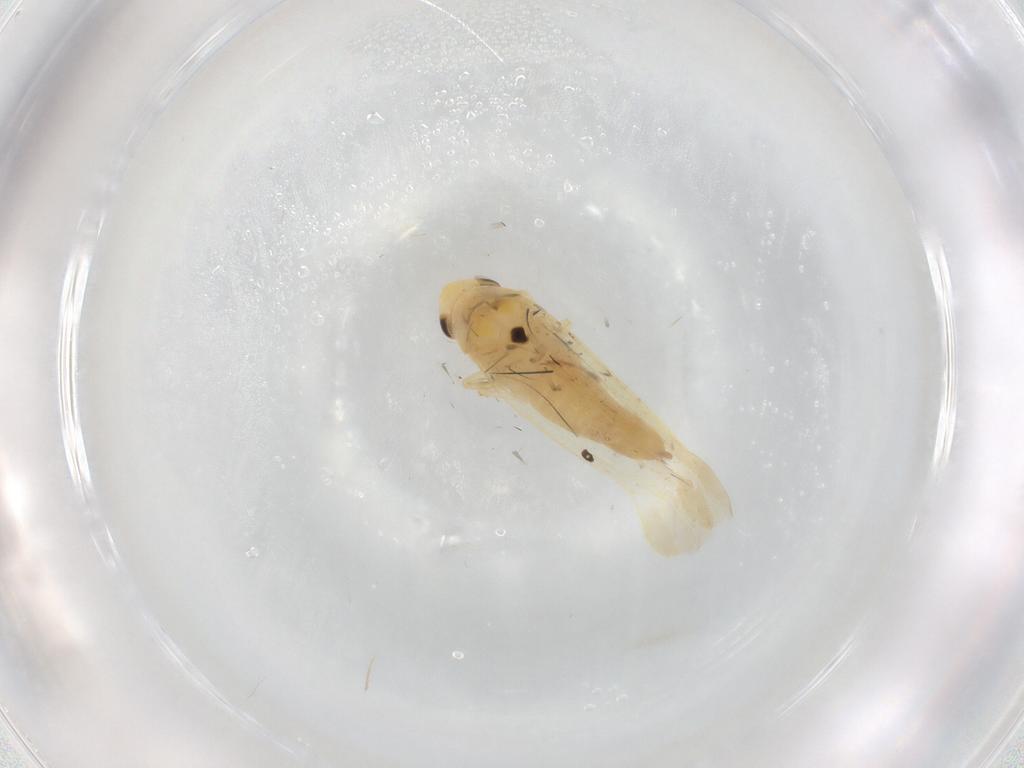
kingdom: Animalia
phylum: Arthropoda
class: Insecta
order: Hemiptera
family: Cicadellidae
